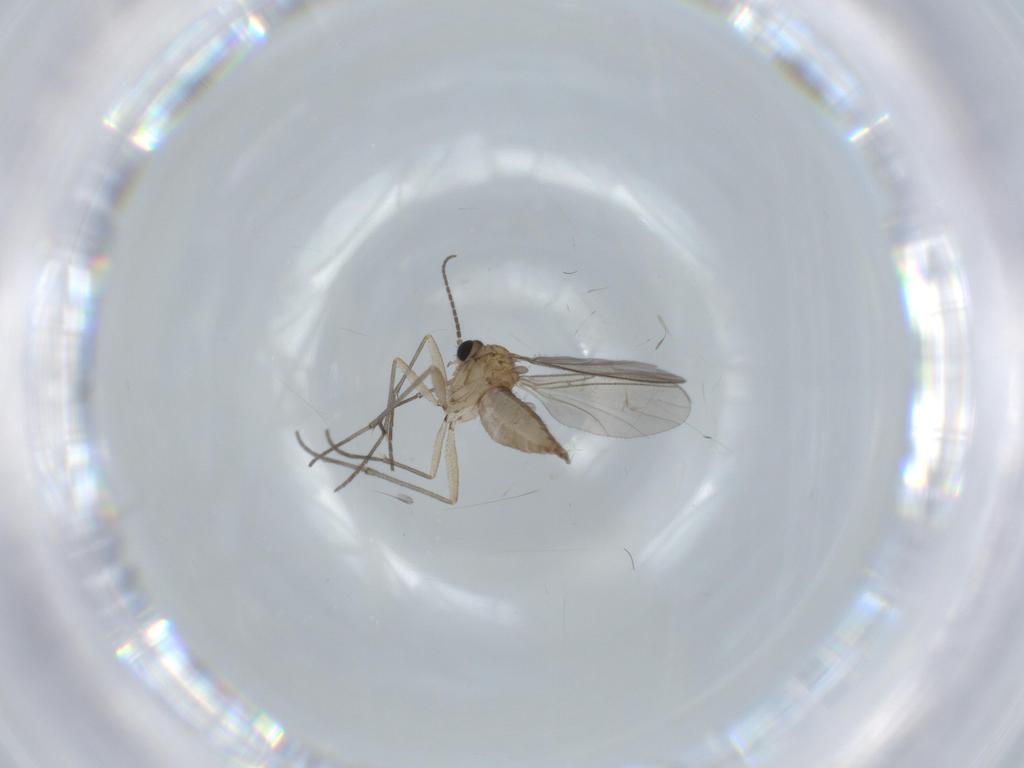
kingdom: Animalia
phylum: Arthropoda
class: Insecta
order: Diptera
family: Sciaridae
